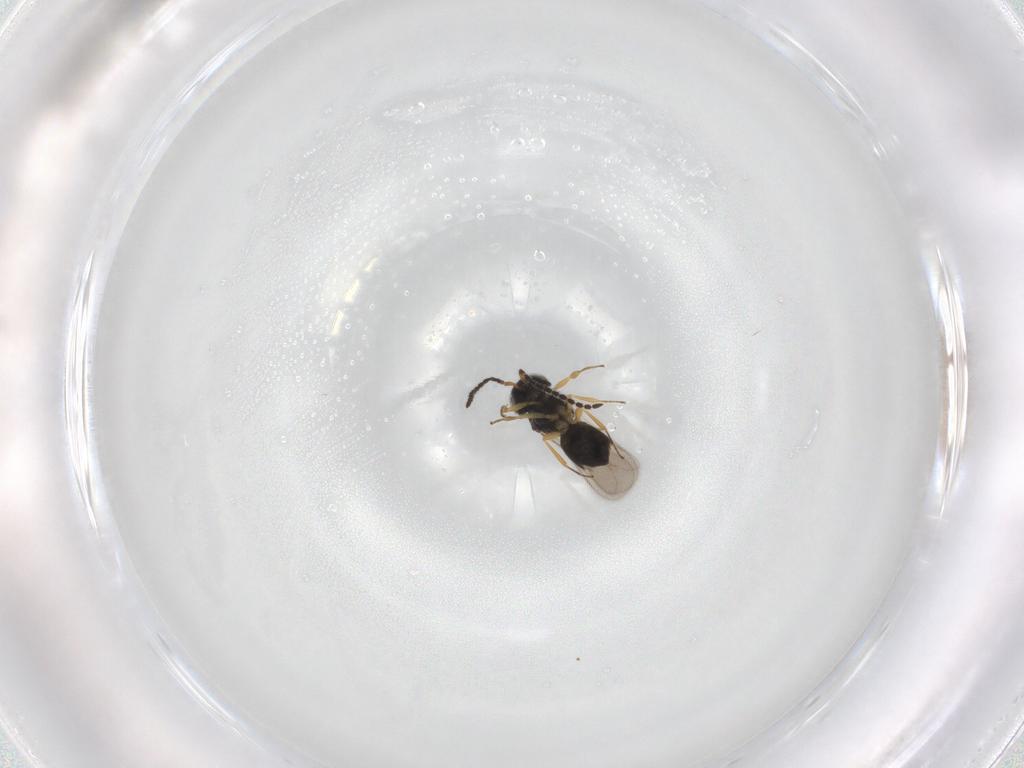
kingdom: Animalia
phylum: Arthropoda
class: Insecta
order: Hymenoptera
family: Scelionidae
